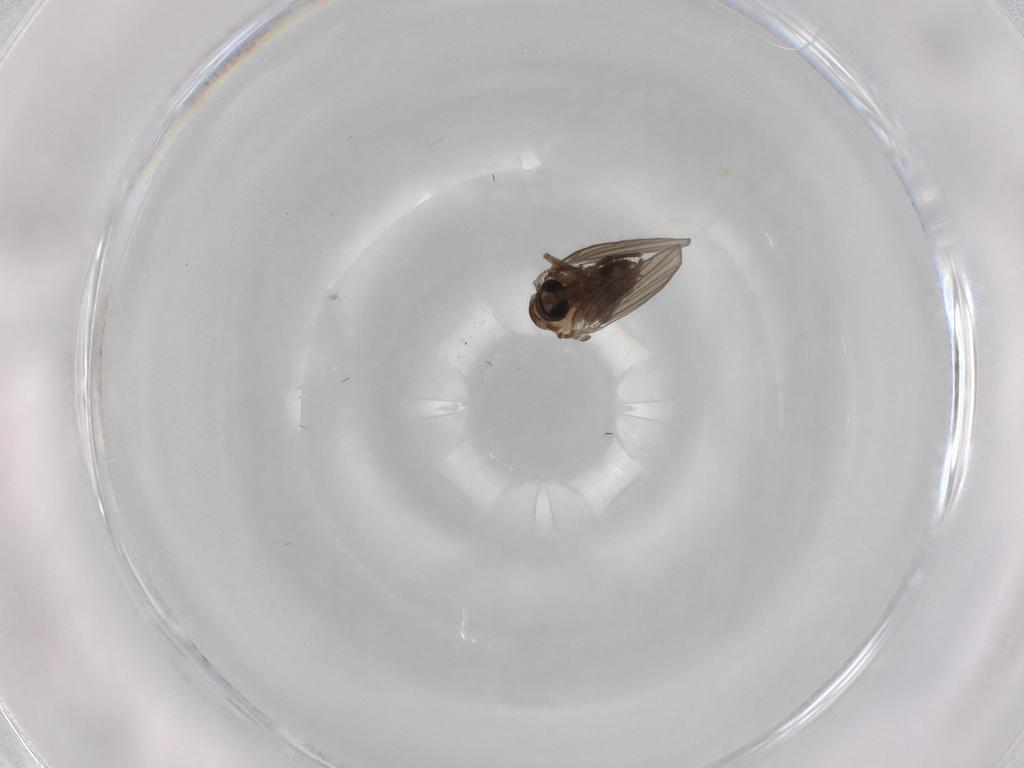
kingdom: Animalia
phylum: Arthropoda
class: Insecta
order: Diptera
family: Psychodidae
